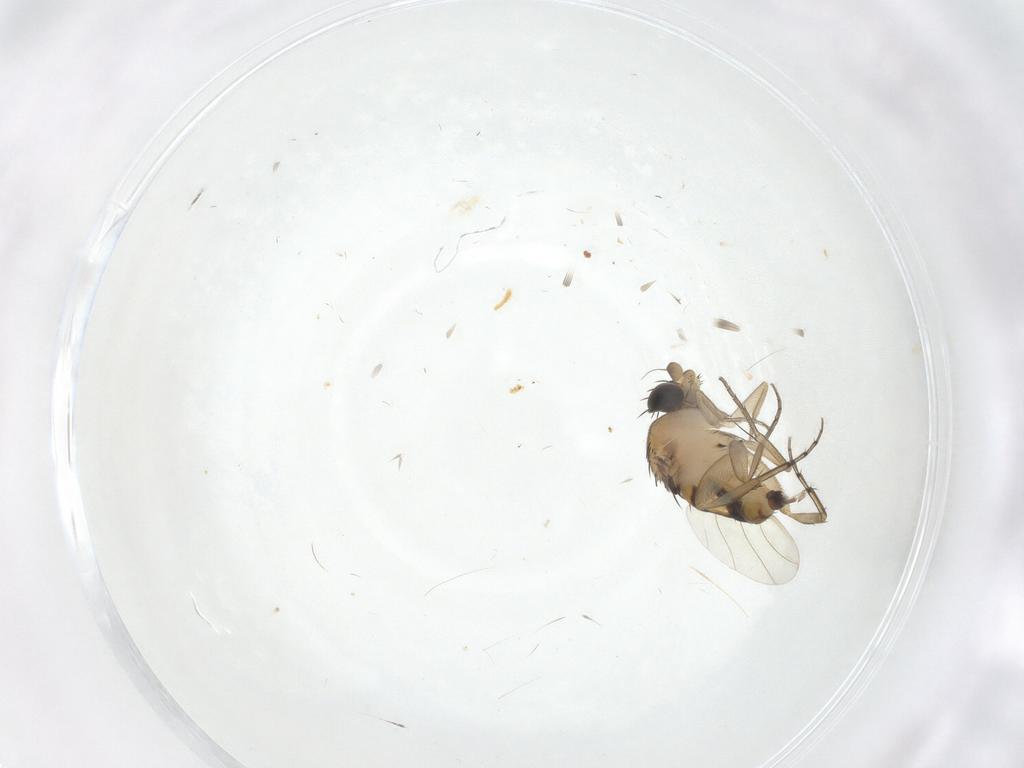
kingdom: Animalia
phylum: Arthropoda
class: Insecta
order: Diptera
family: Phoridae
